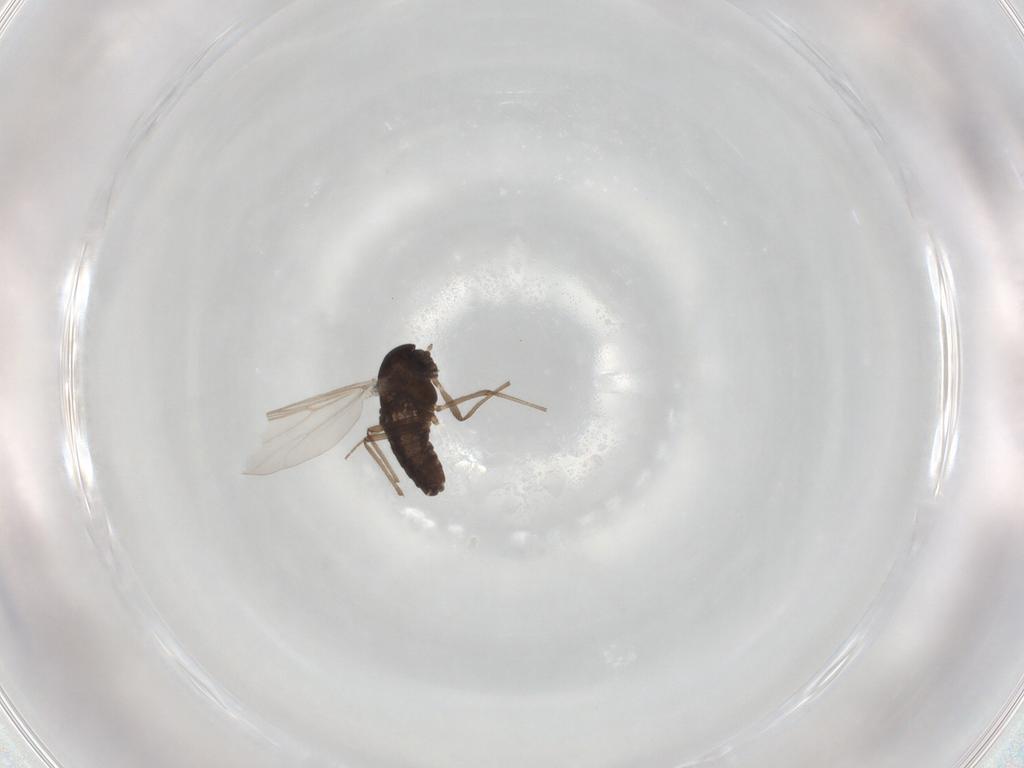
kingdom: Animalia
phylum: Arthropoda
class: Insecta
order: Diptera
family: Chironomidae
